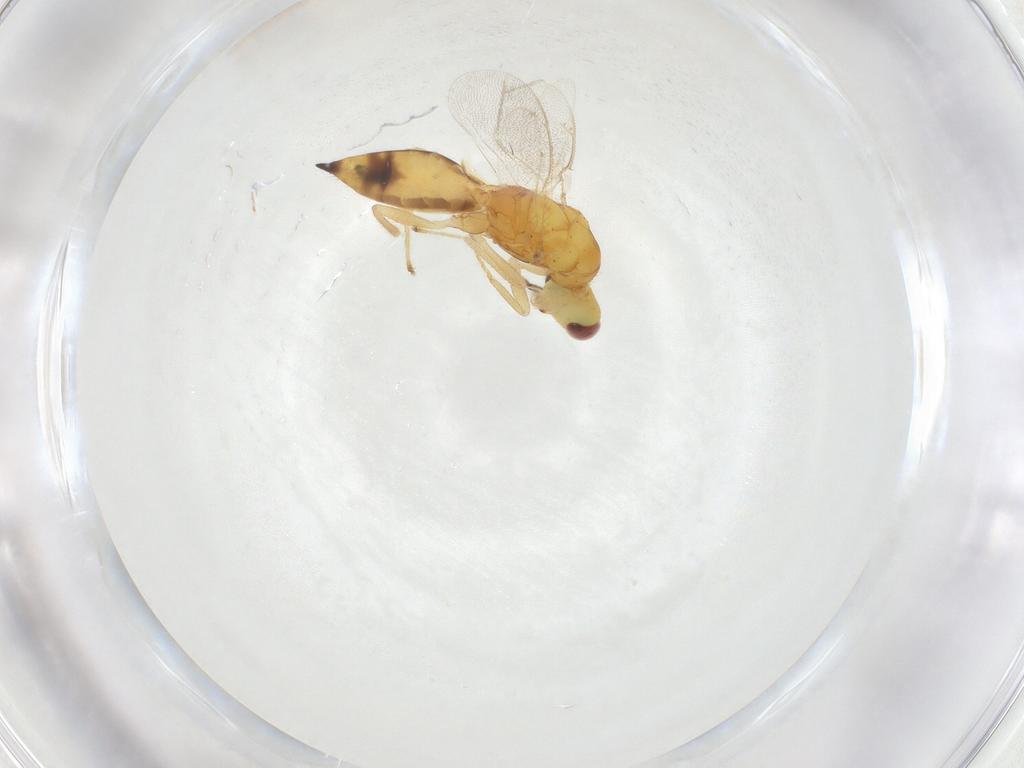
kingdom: Animalia
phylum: Arthropoda
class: Insecta
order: Hymenoptera
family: Eulophidae
